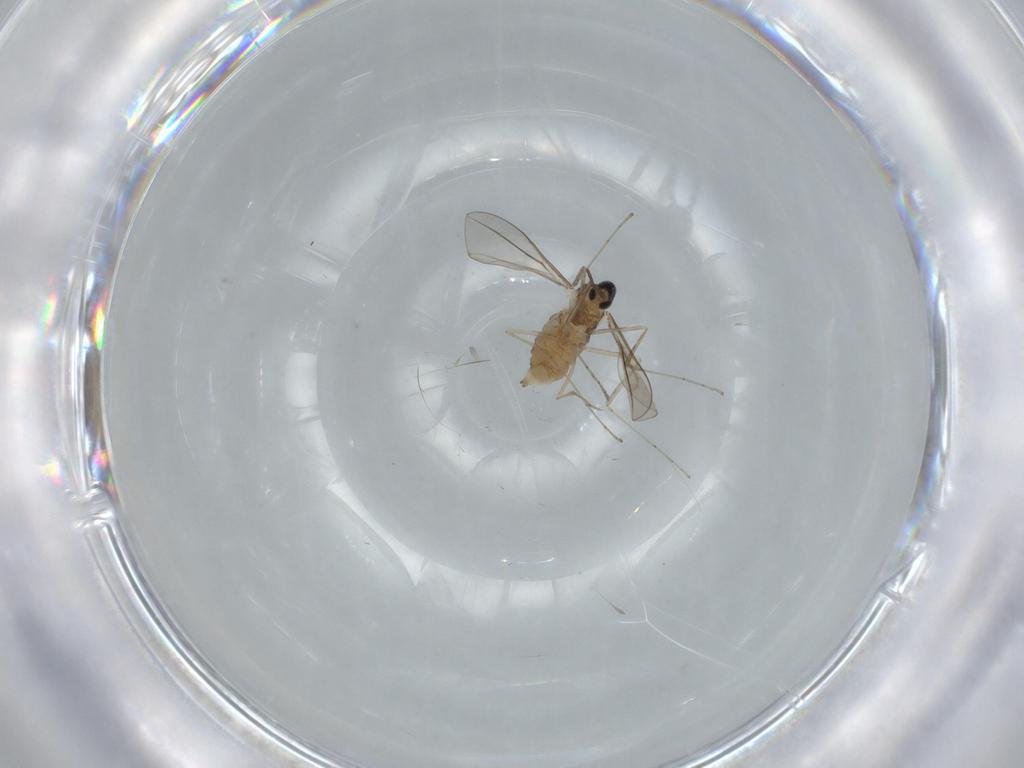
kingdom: Animalia
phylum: Arthropoda
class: Insecta
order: Diptera
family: Cecidomyiidae
